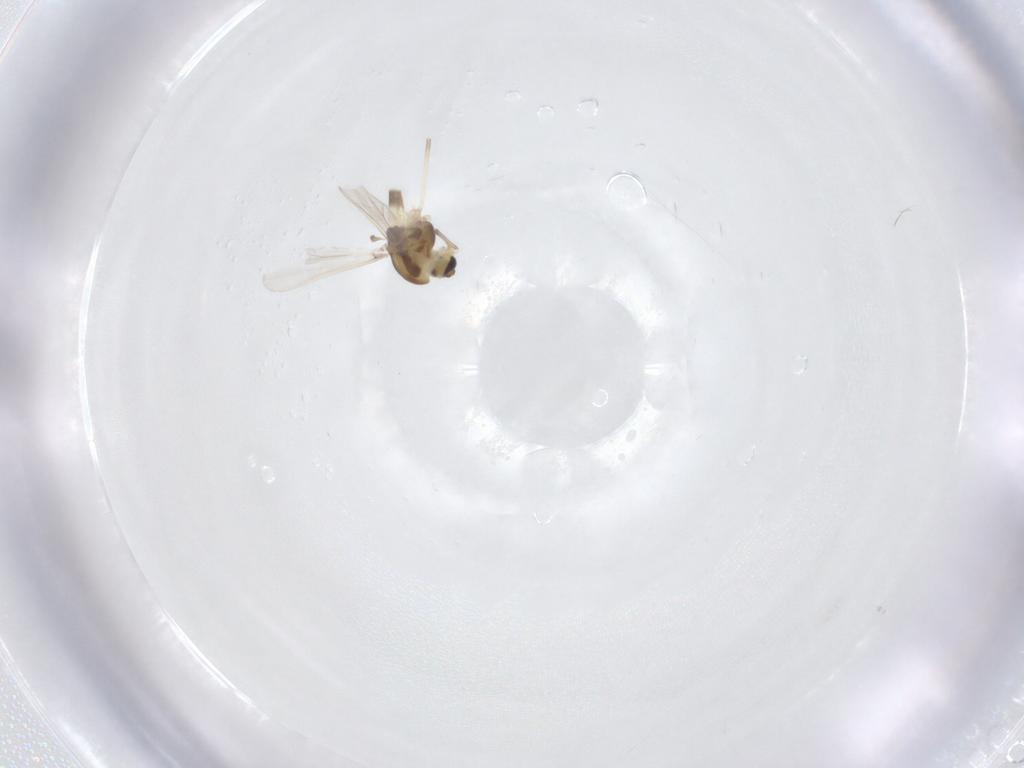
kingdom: Animalia
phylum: Arthropoda
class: Insecta
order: Diptera
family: Chironomidae
